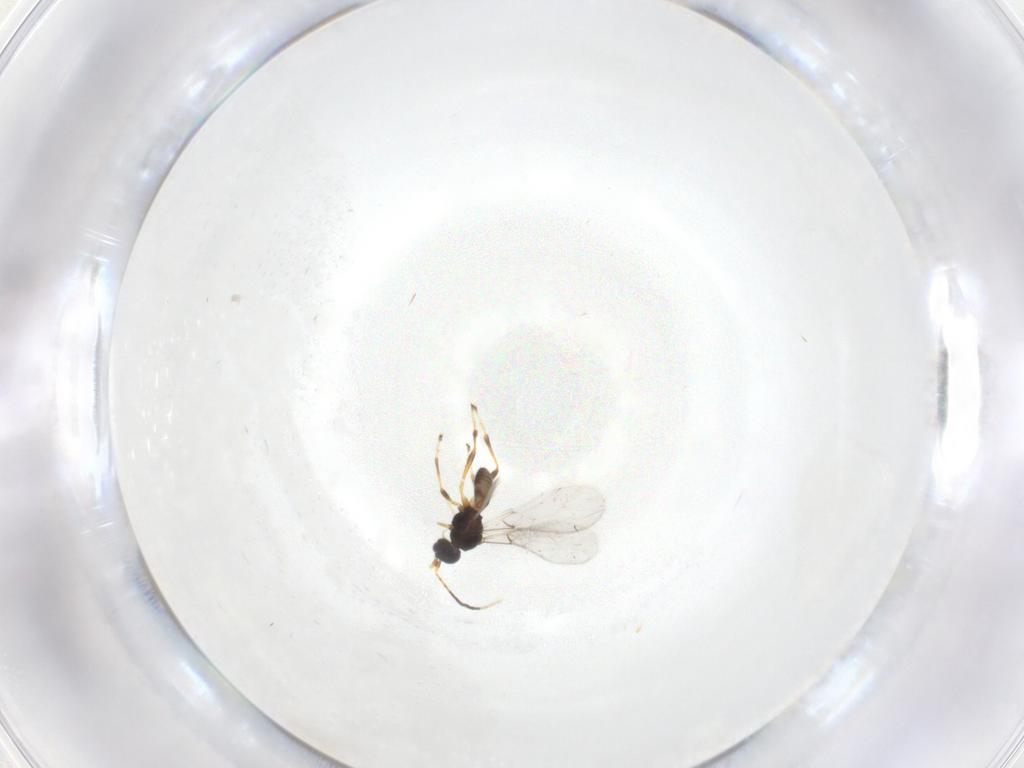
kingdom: Animalia
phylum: Arthropoda
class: Insecta
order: Hymenoptera
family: Braconidae
